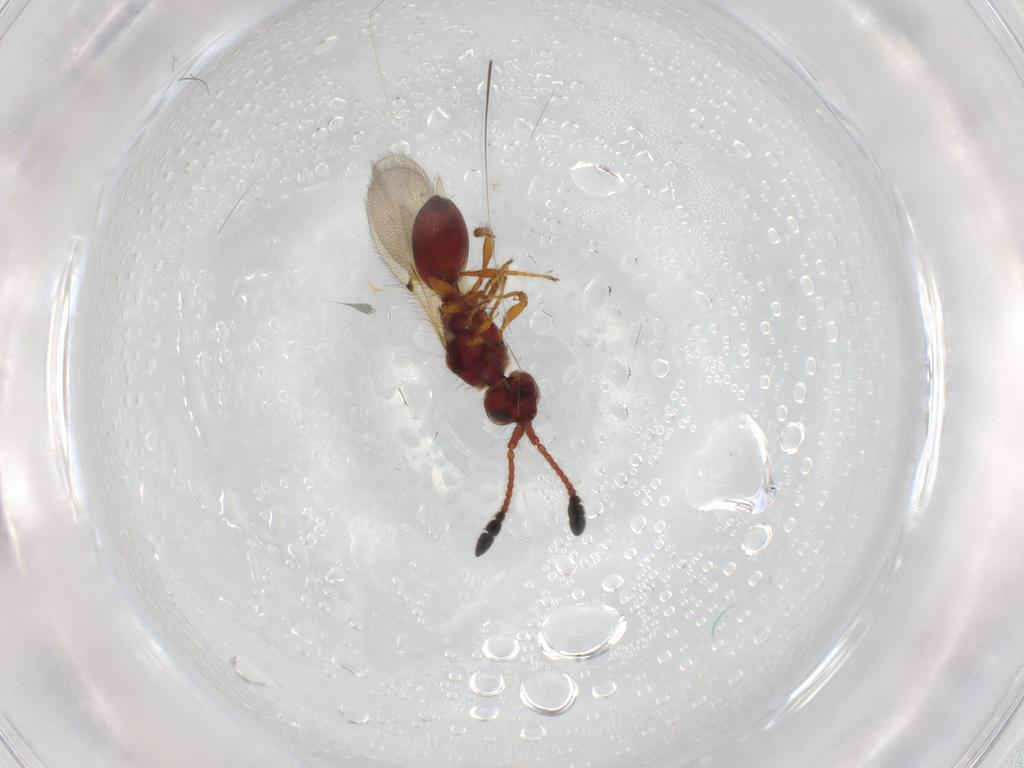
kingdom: Animalia
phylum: Arthropoda
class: Insecta
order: Hymenoptera
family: Diapriidae
